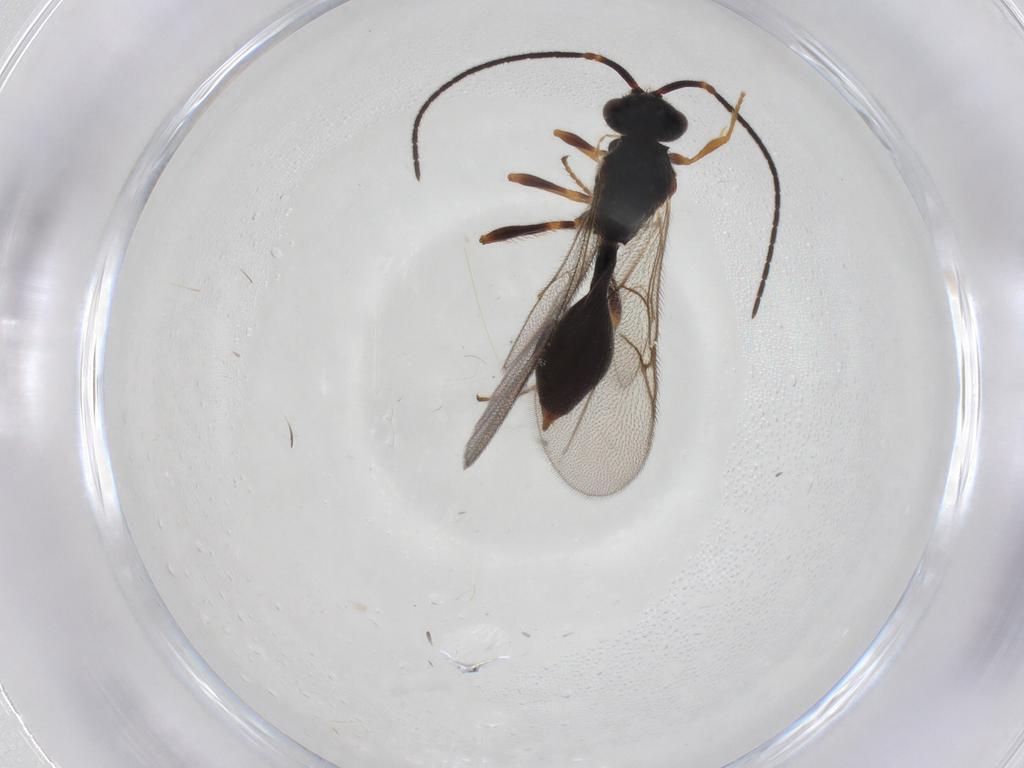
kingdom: Animalia
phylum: Arthropoda
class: Insecta
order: Hymenoptera
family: Diapriidae
